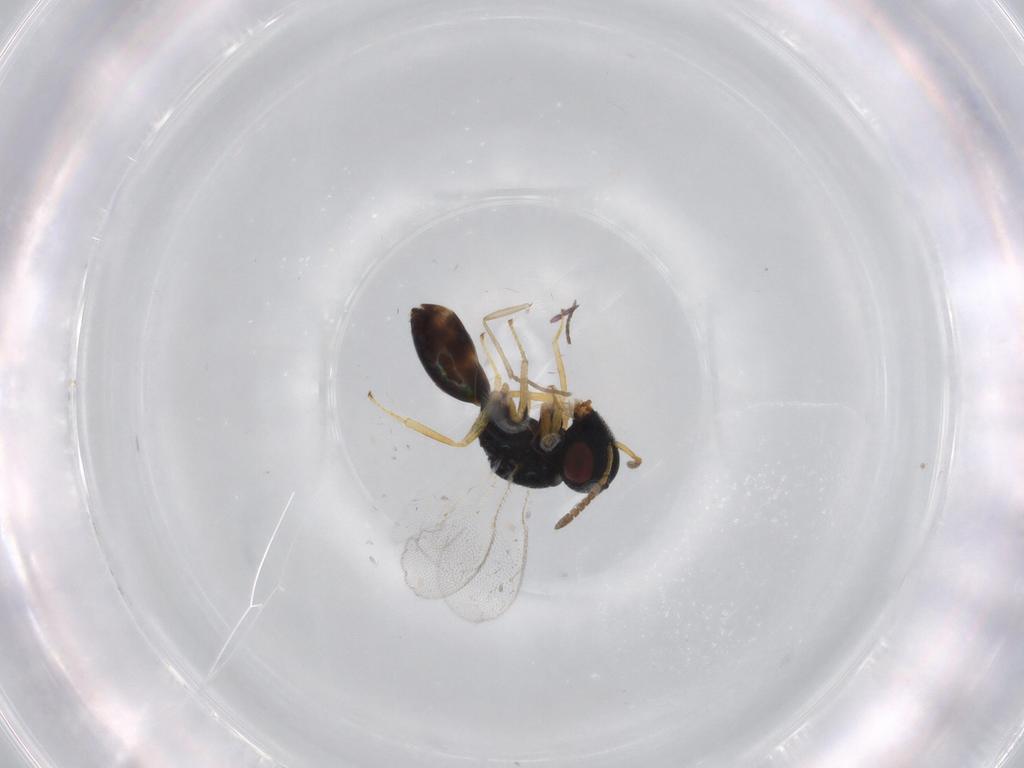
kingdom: Animalia
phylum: Arthropoda
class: Insecta
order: Hymenoptera
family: Pteromalidae
